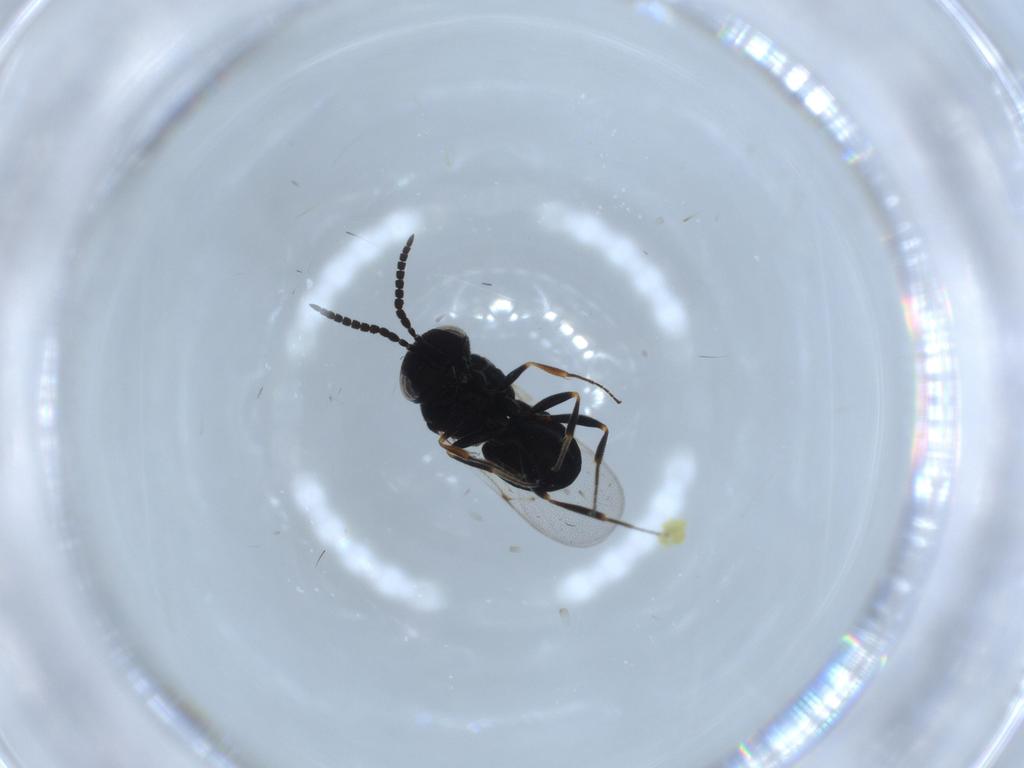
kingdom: Animalia
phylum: Arthropoda
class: Insecta
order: Hymenoptera
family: Scelionidae
